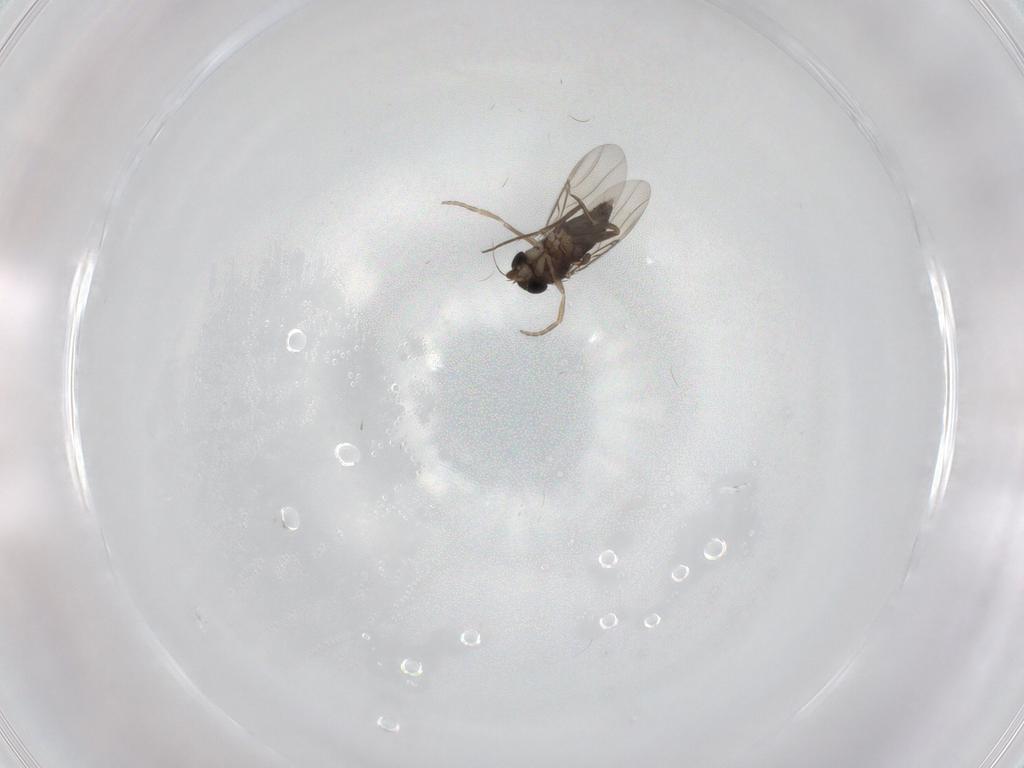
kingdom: Animalia
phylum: Arthropoda
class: Insecta
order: Diptera
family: Phoridae
